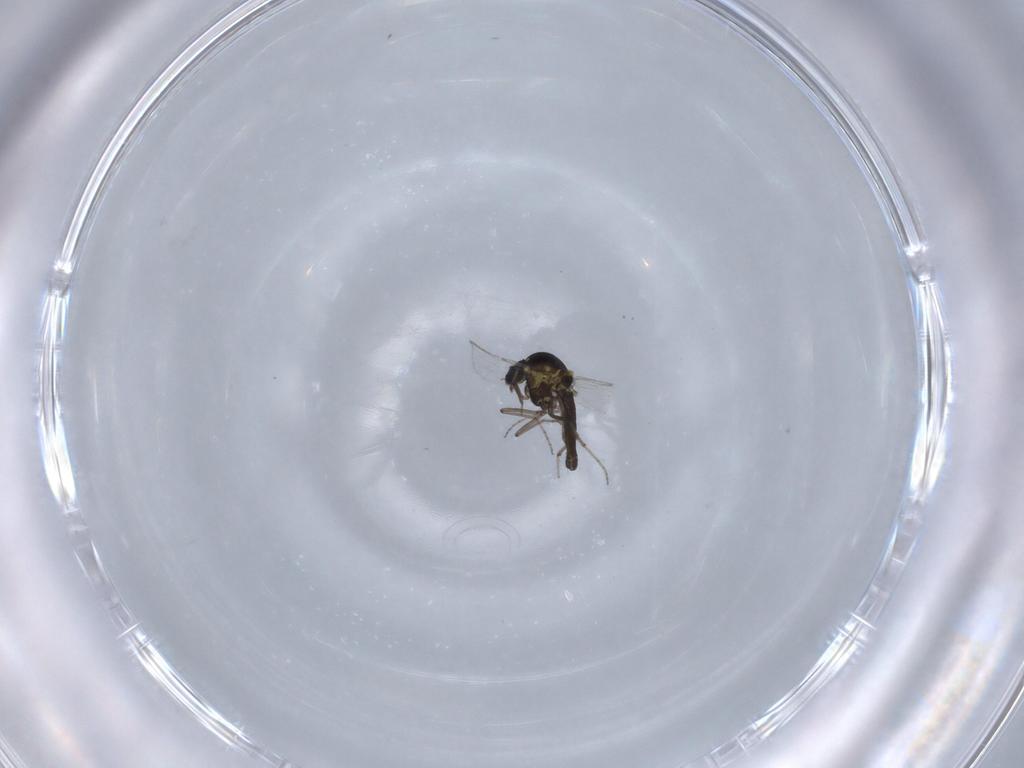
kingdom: Animalia
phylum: Arthropoda
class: Insecta
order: Diptera
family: Ceratopogonidae
